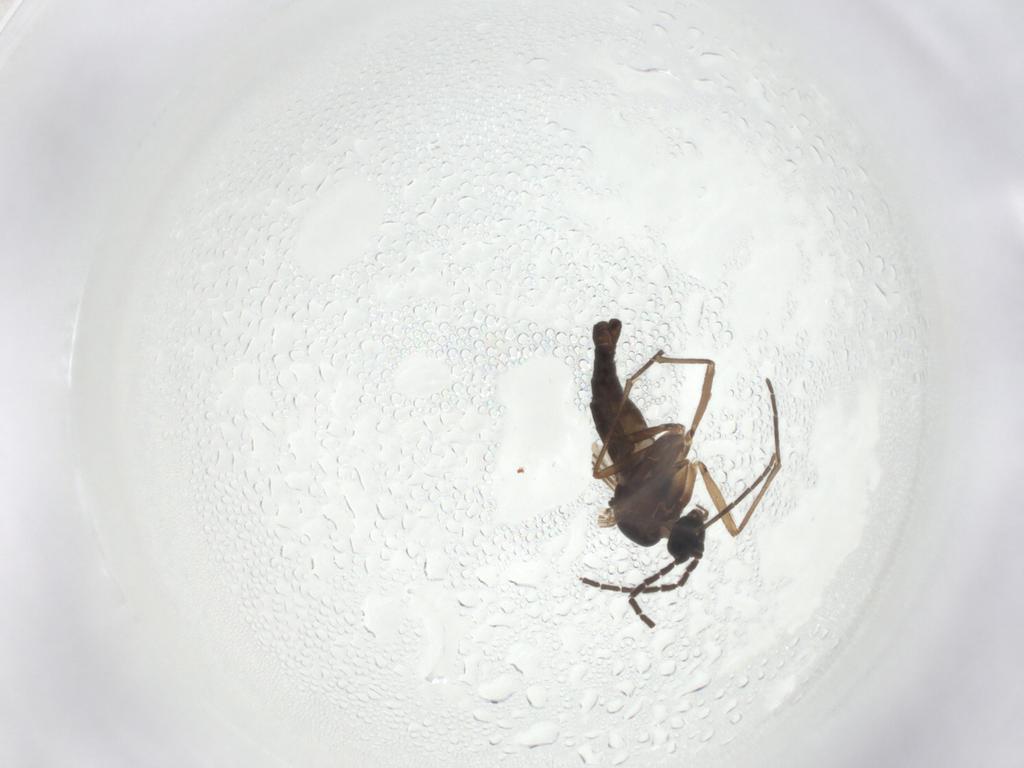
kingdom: Animalia
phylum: Arthropoda
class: Insecta
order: Diptera
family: Sciaridae
